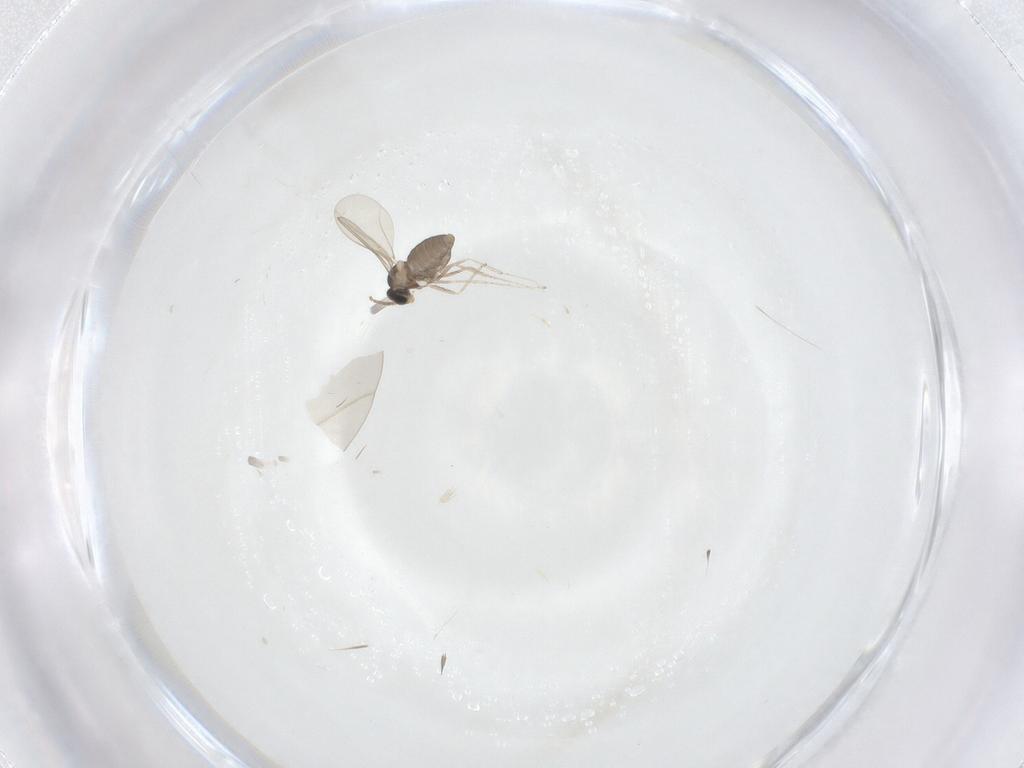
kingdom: Animalia
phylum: Arthropoda
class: Insecta
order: Diptera
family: Cecidomyiidae
